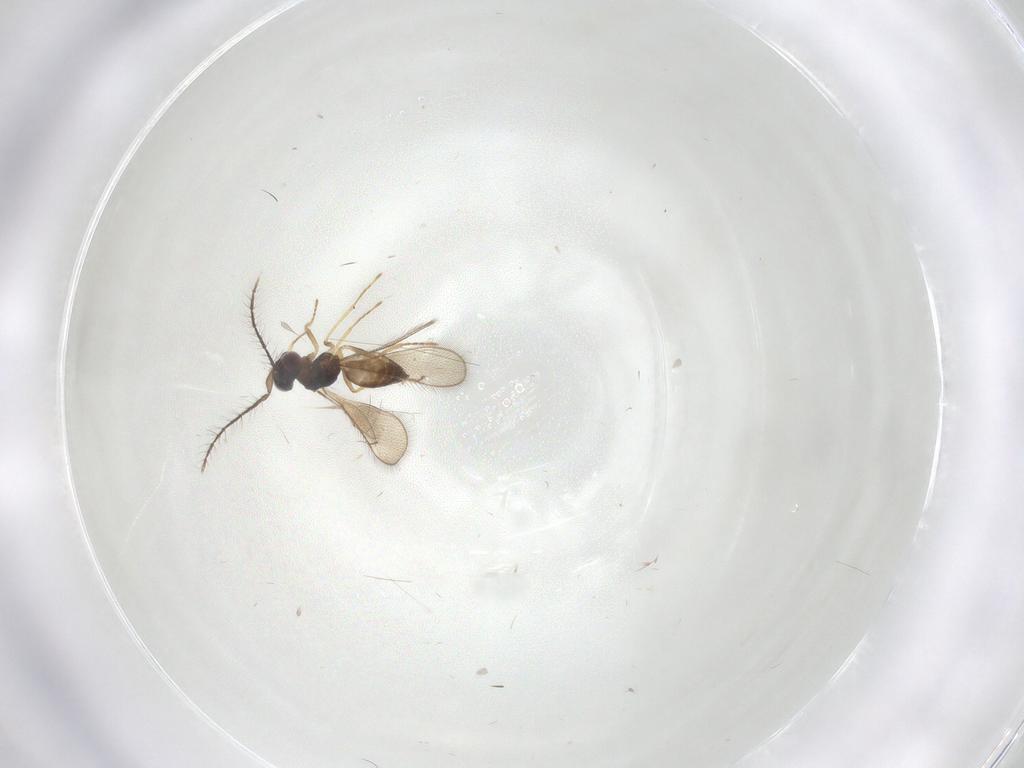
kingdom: Animalia
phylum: Arthropoda
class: Insecta
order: Hymenoptera
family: Eulophidae
